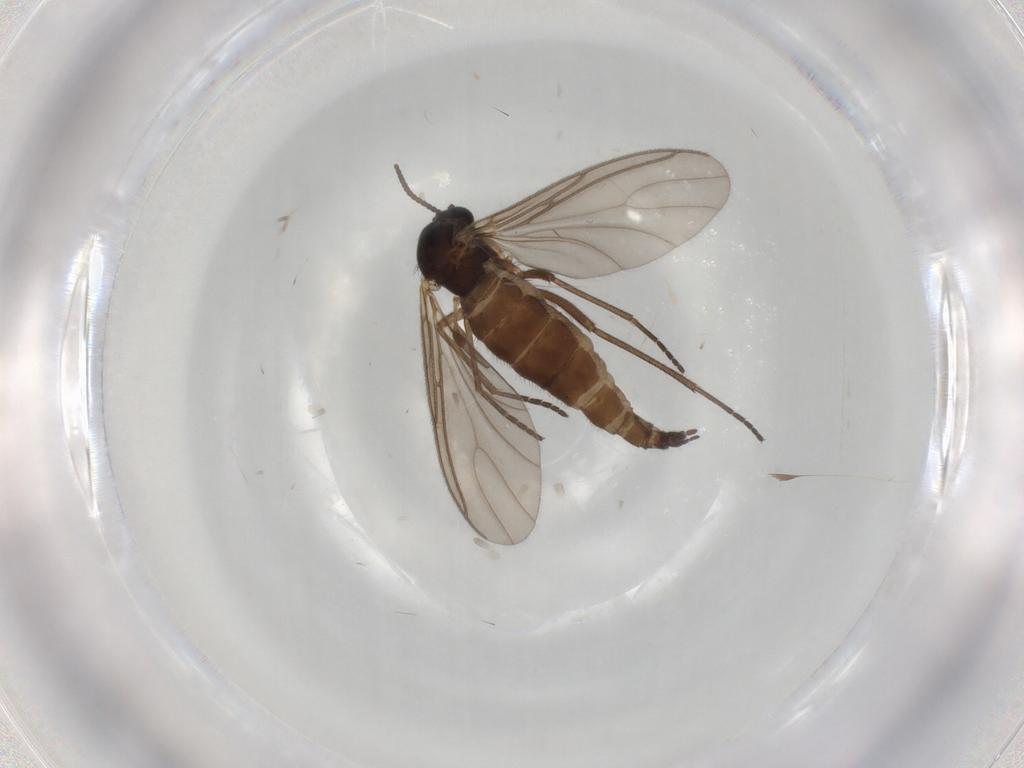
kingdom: Animalia
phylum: Arthropoda
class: Insecta
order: Diptera
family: Sciaridae
